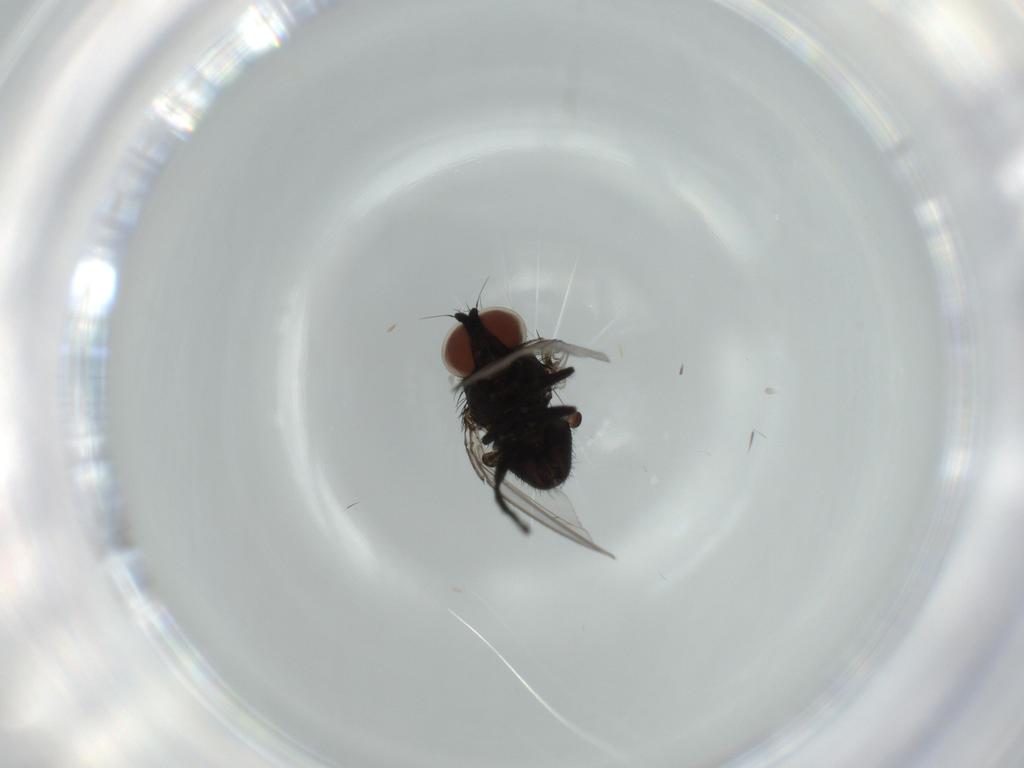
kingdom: Animalia
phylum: Arthropoda
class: Insecta
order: Diptera
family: Milichiidae
